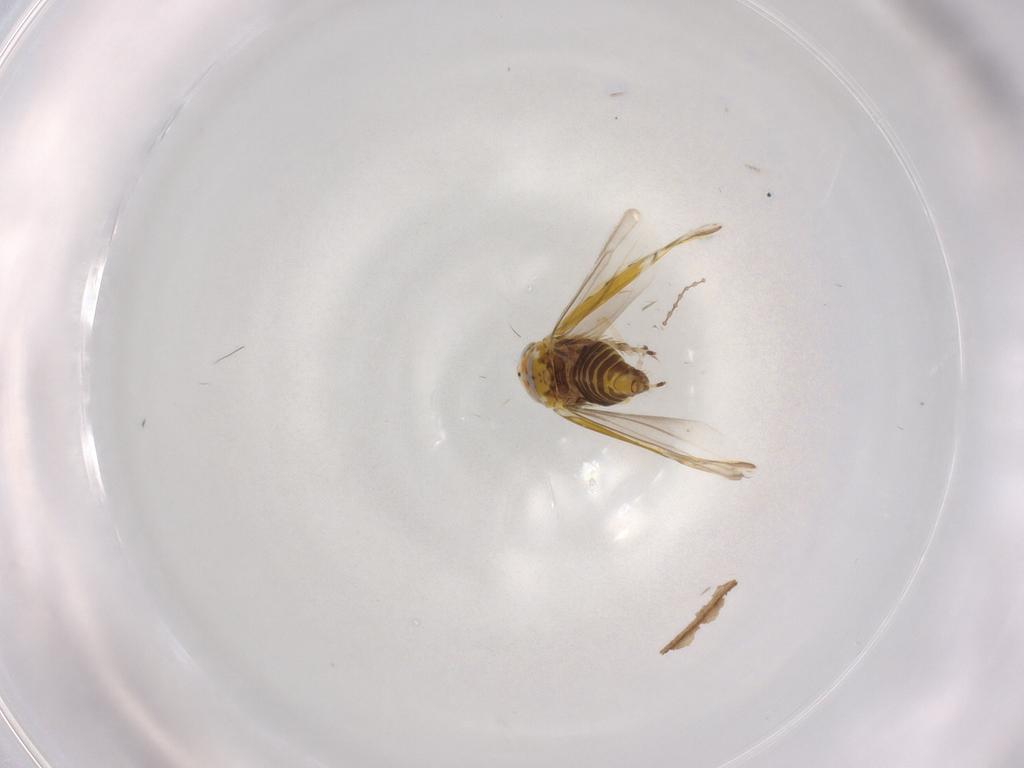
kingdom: Animalia
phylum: Arthropoda
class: Insecta
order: Hemiptera
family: Cicadellidae
